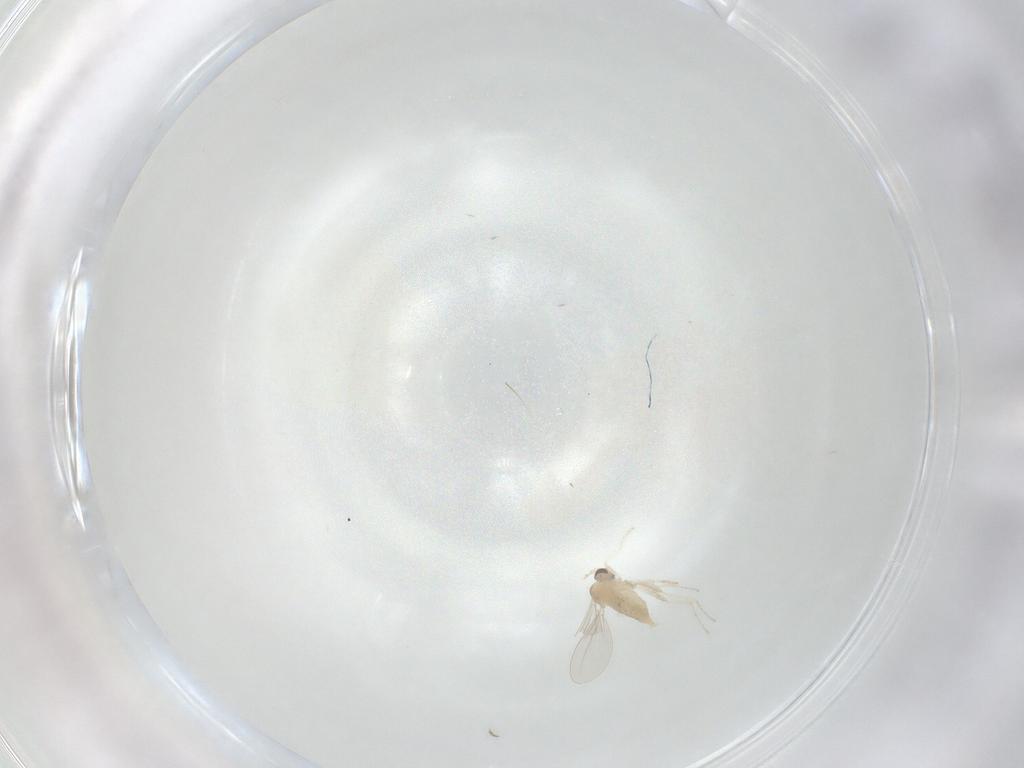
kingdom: Animalia
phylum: Arthropoda
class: Insecta
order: Diptera
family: Cecidomyiidae
